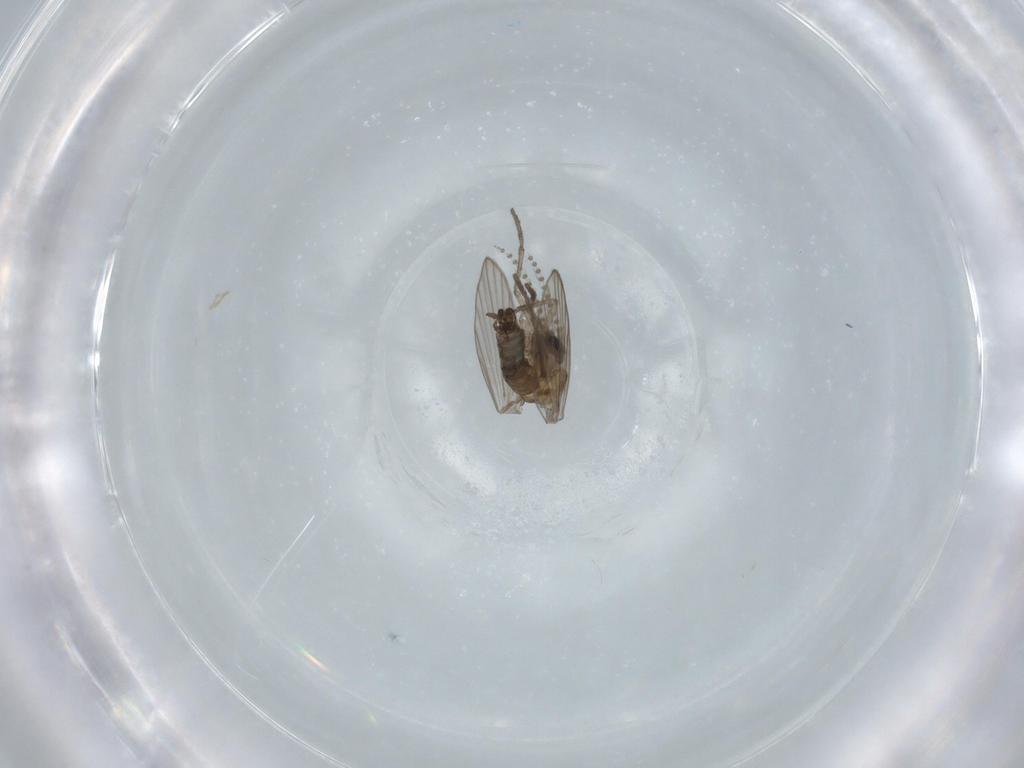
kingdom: Animalia
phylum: Arthropoda
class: Insecta
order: Diptera
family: Psychodidae
